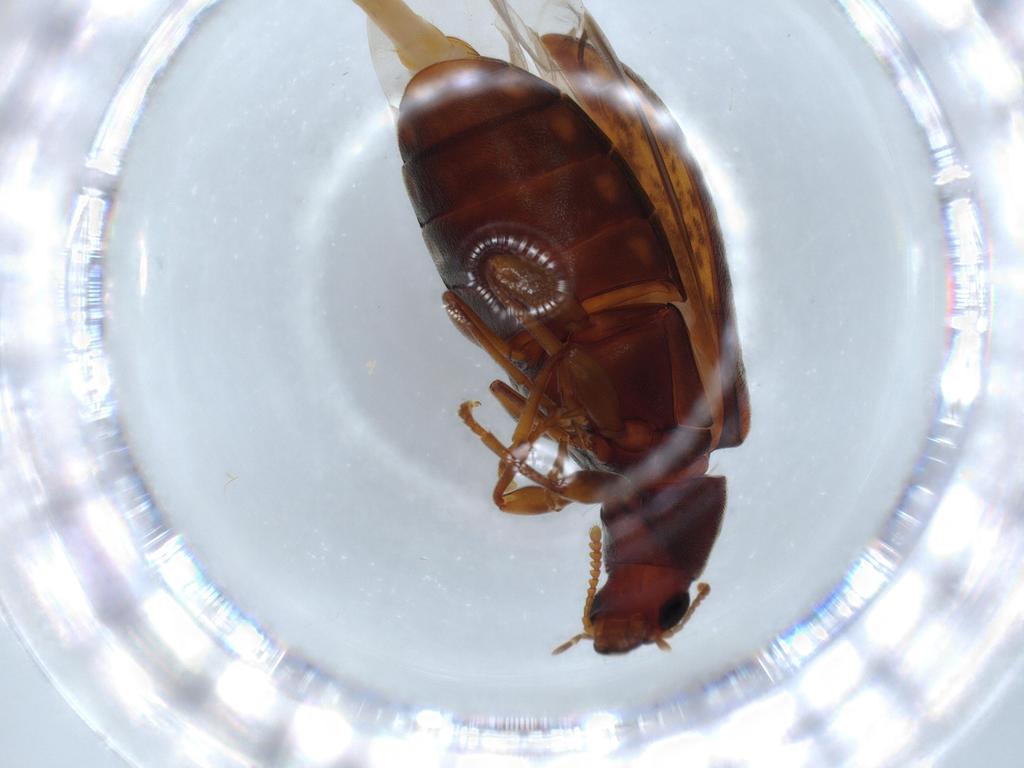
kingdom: Animalia
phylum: Arthropoda
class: Insecta
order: Coleoptera
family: Mycteridae
